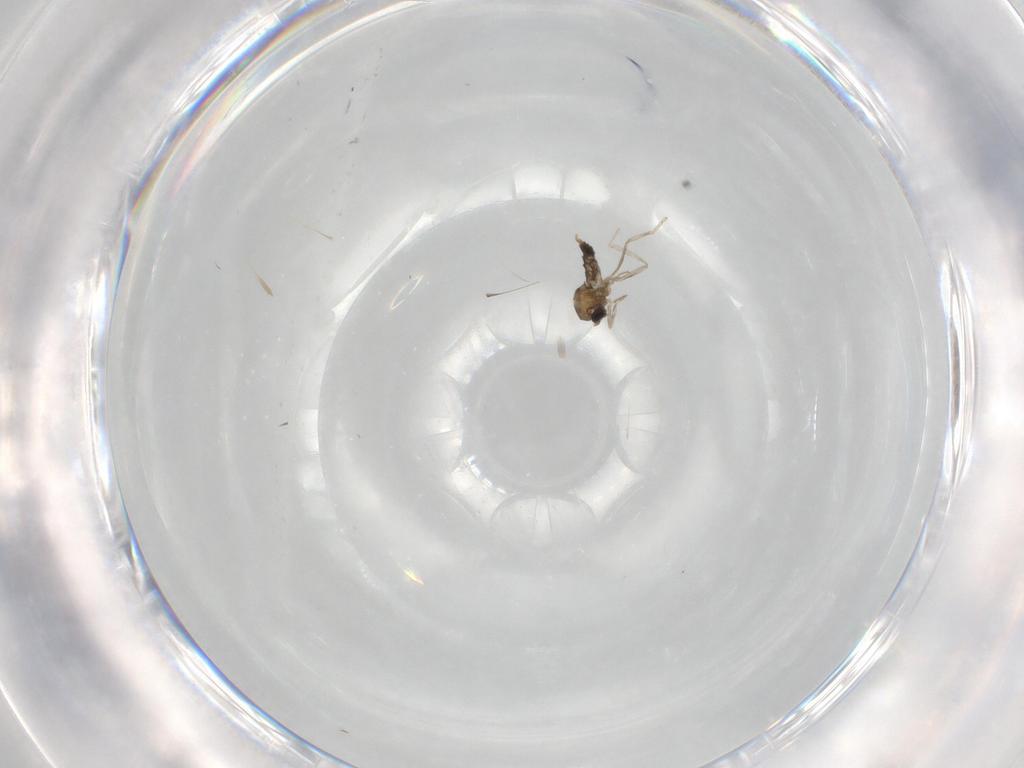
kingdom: Animalia
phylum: Arthropoda
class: Insecta
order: Diptera
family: Cecidomyiidae
